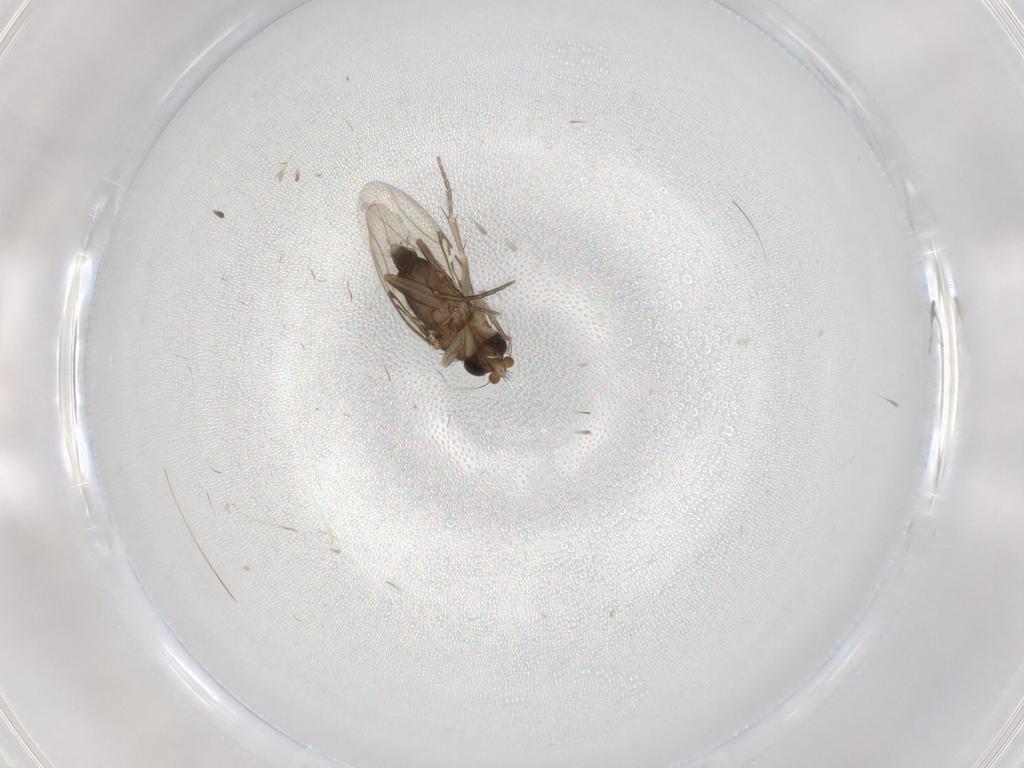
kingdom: Animalia
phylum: Arthropoda
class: Insecta
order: Diptera
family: Phoridae
